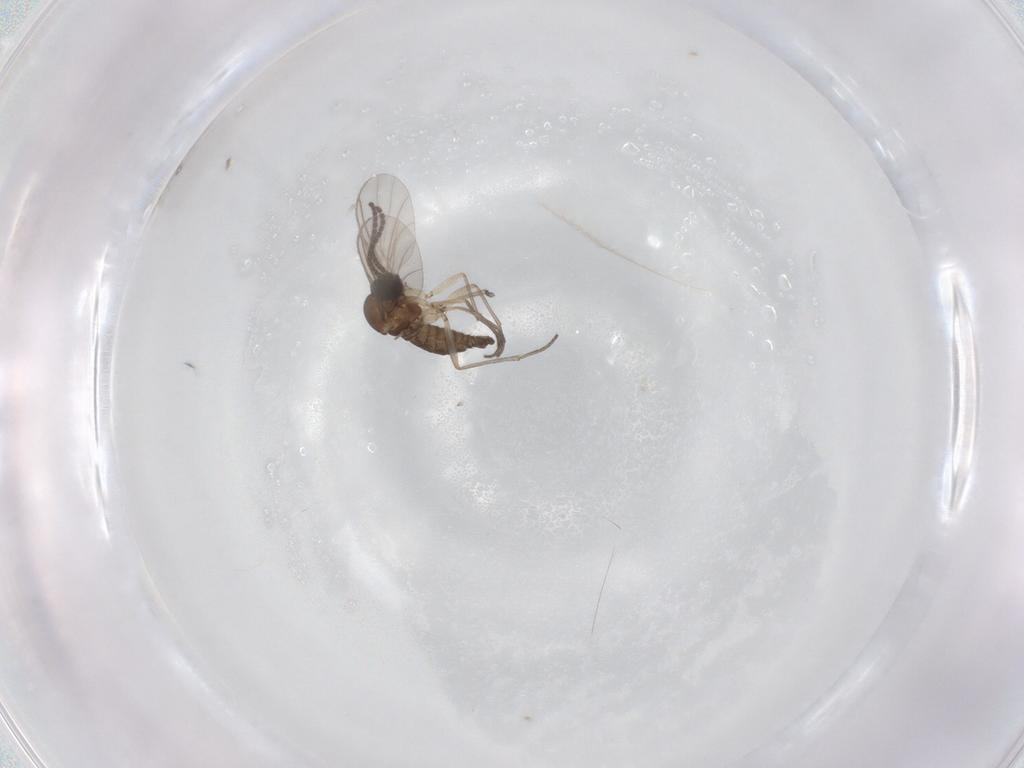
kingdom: Animalia
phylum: Arthropoda
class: Insecta
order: Diptera
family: Sciaridae
